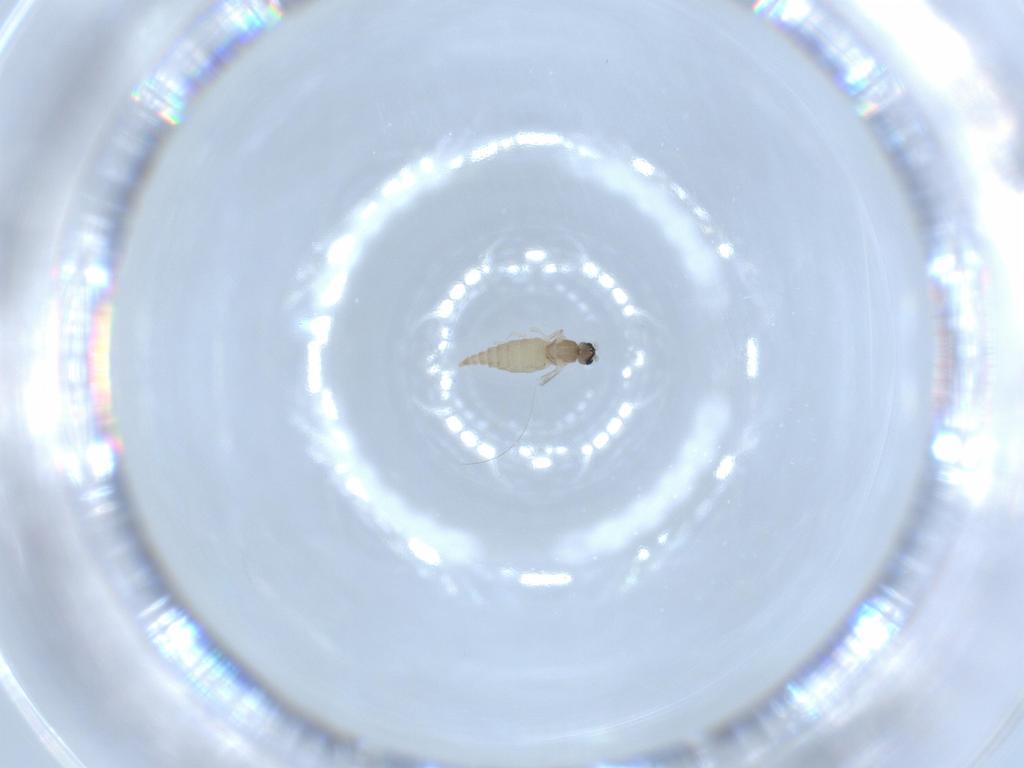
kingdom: Animalia
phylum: Arthropoda
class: Insecta
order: Diptera
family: Cecidomyiidae
